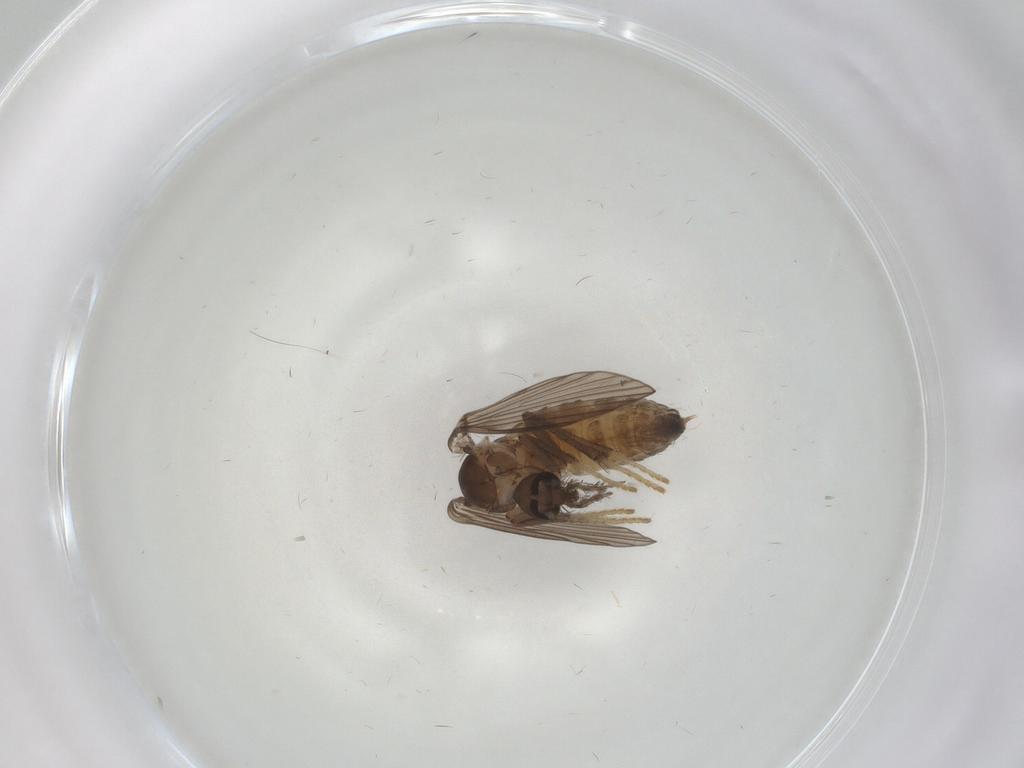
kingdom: Animalia
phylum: Arthropoda
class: Insecta
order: Diptera
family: Psychodidae
